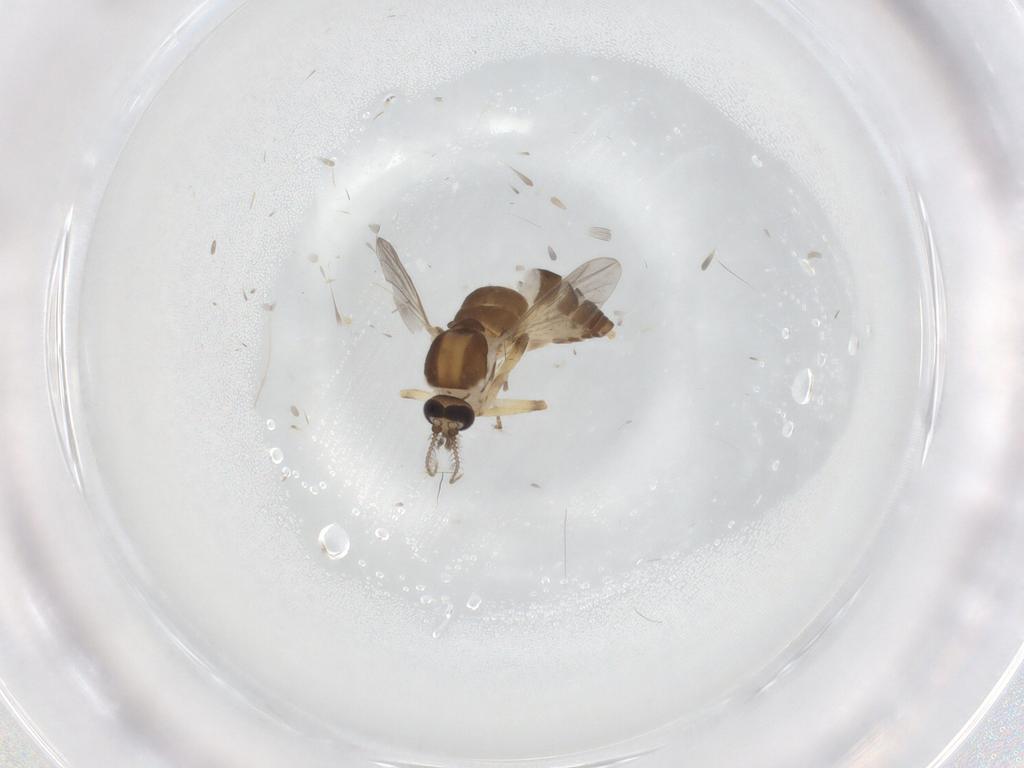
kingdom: Animalia
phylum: Arthropoda
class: Insecta
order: Diptera
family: Ceratopogonidae
